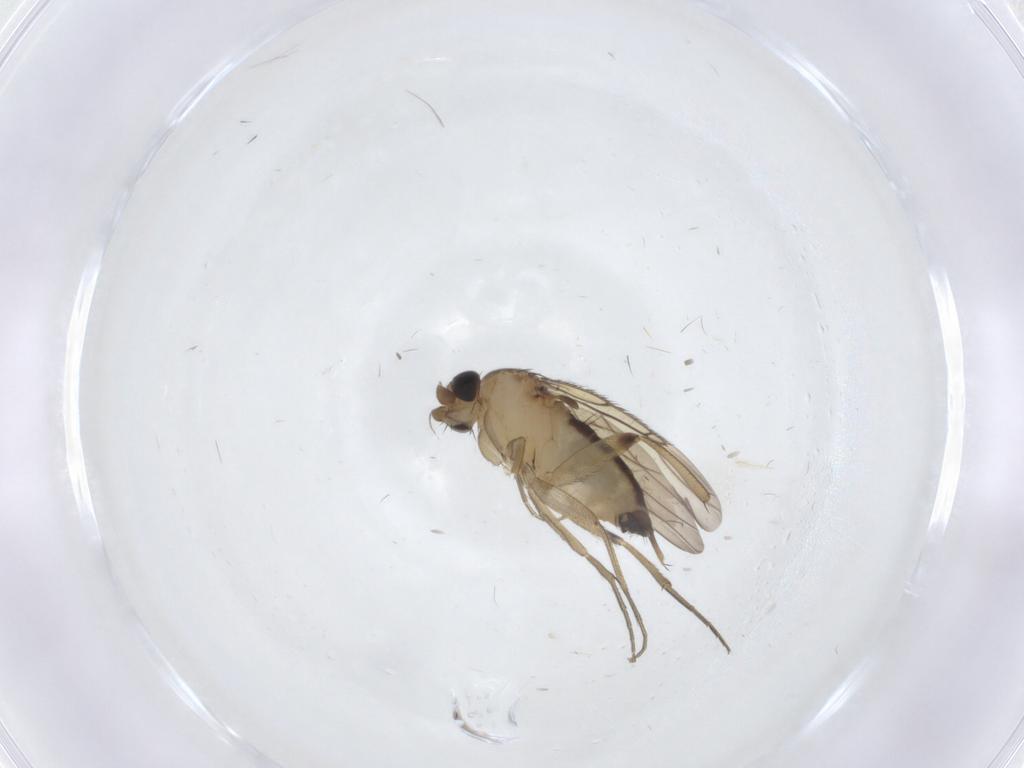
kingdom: Animalia
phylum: Arthropoda
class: Insecta
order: Diptera
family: Phoridae
